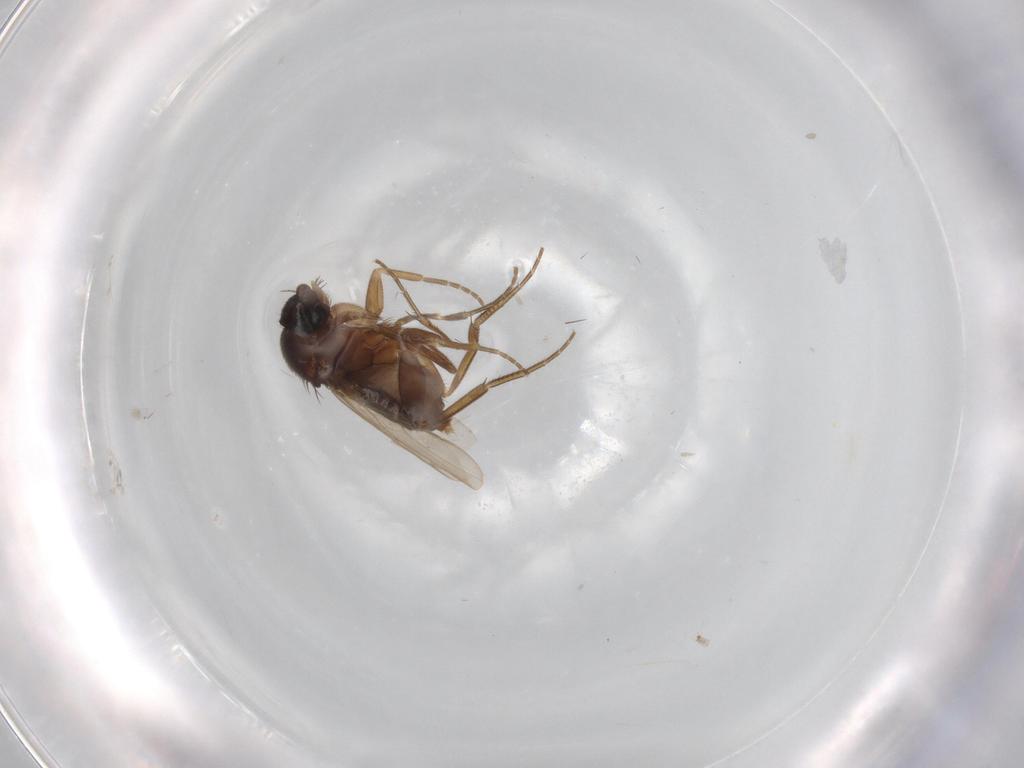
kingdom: Animalia
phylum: Arthropoda
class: Insecta
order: Diptera
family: Phoridae
